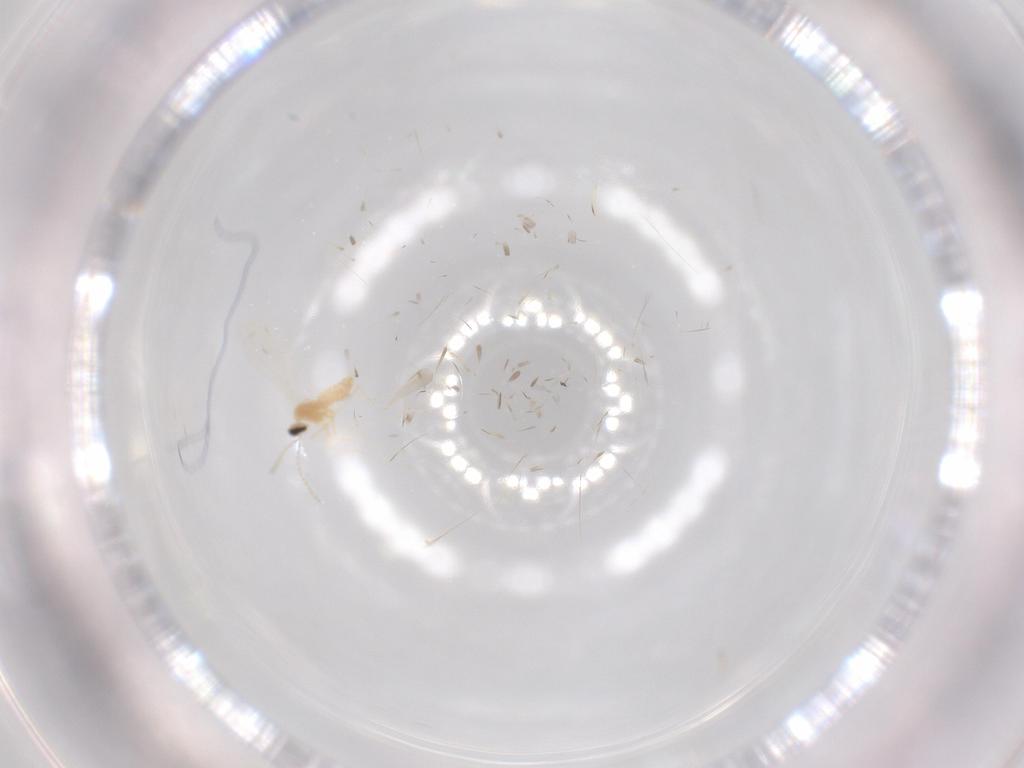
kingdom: Animalia
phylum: Arthropoda
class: Insecta
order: Diptera
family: Cecidomyiidae
